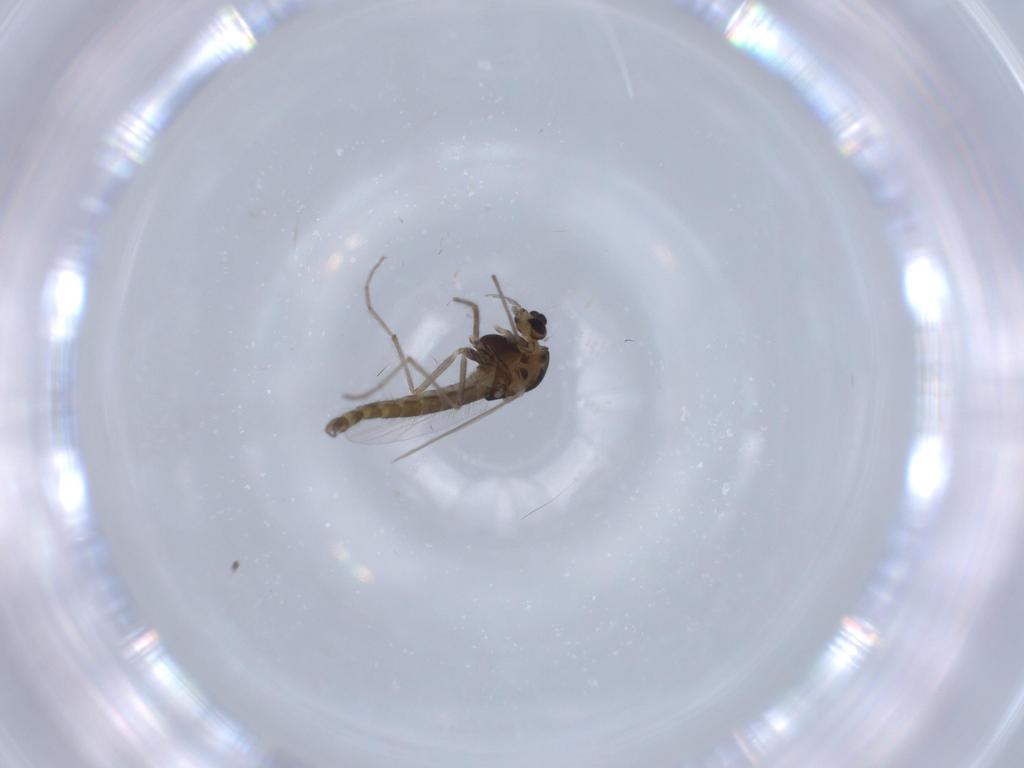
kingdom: Animalia
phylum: Arthropoda
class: Insecta
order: Diptera
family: Chironomidae
